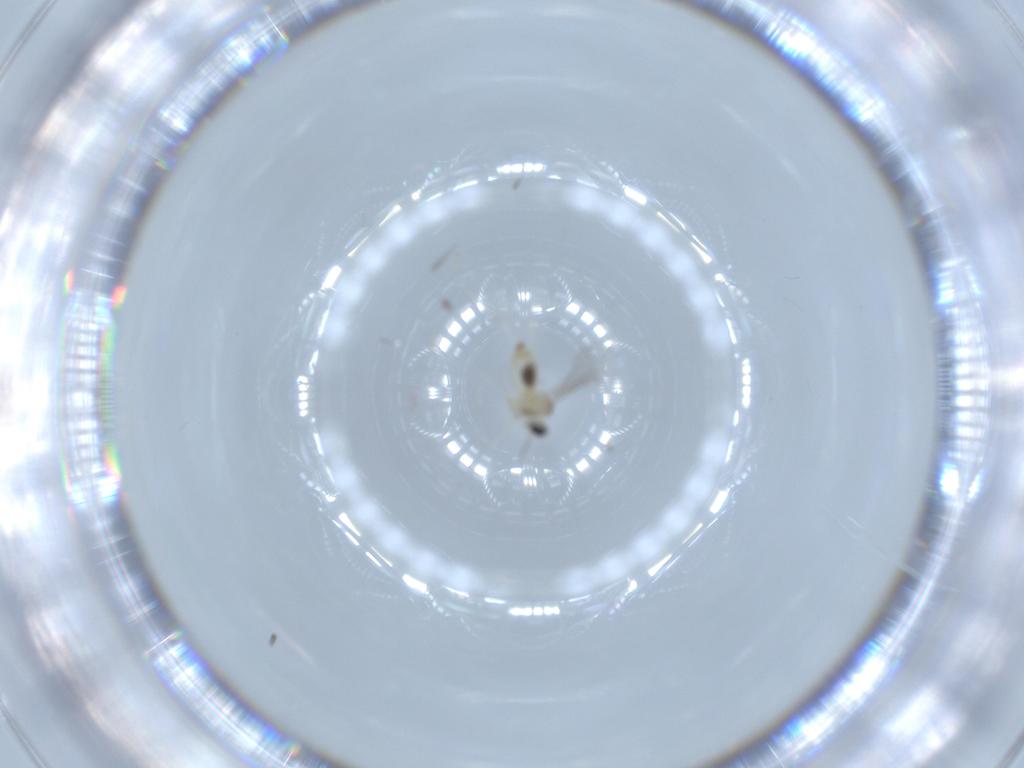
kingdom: Animalia
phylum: Arthropoda
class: Insecta
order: Diptera
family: Cecidomyiidae
